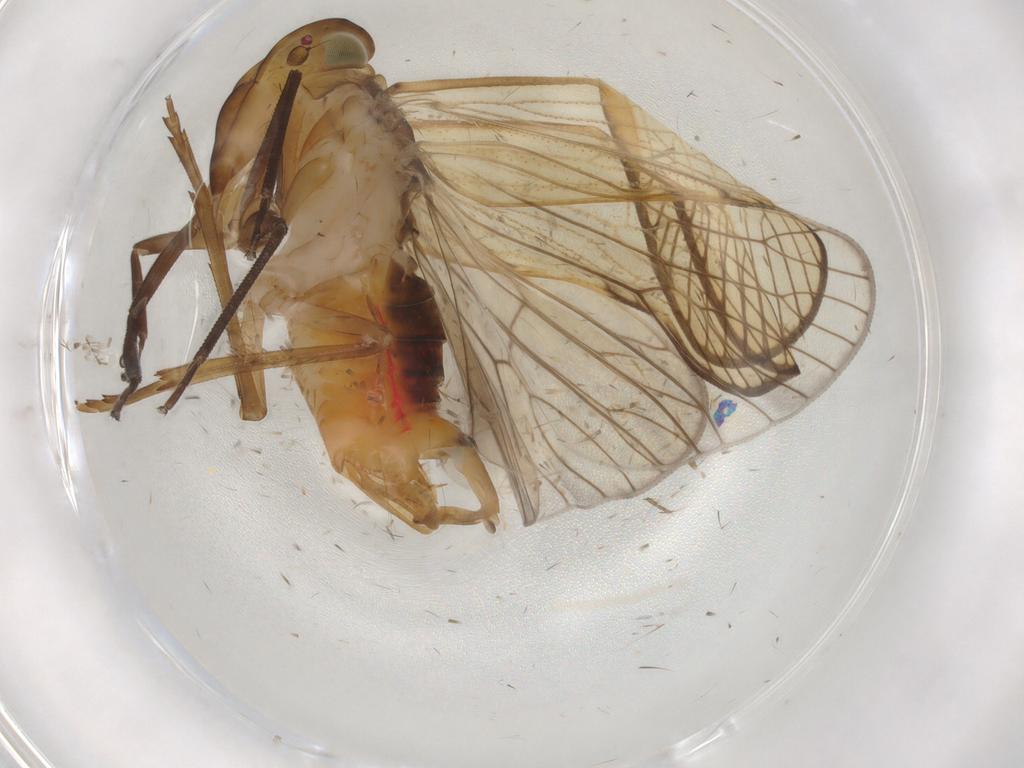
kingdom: Animalia
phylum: Arthropoda
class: Insecta
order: Hemiptera
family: Cixiidae
